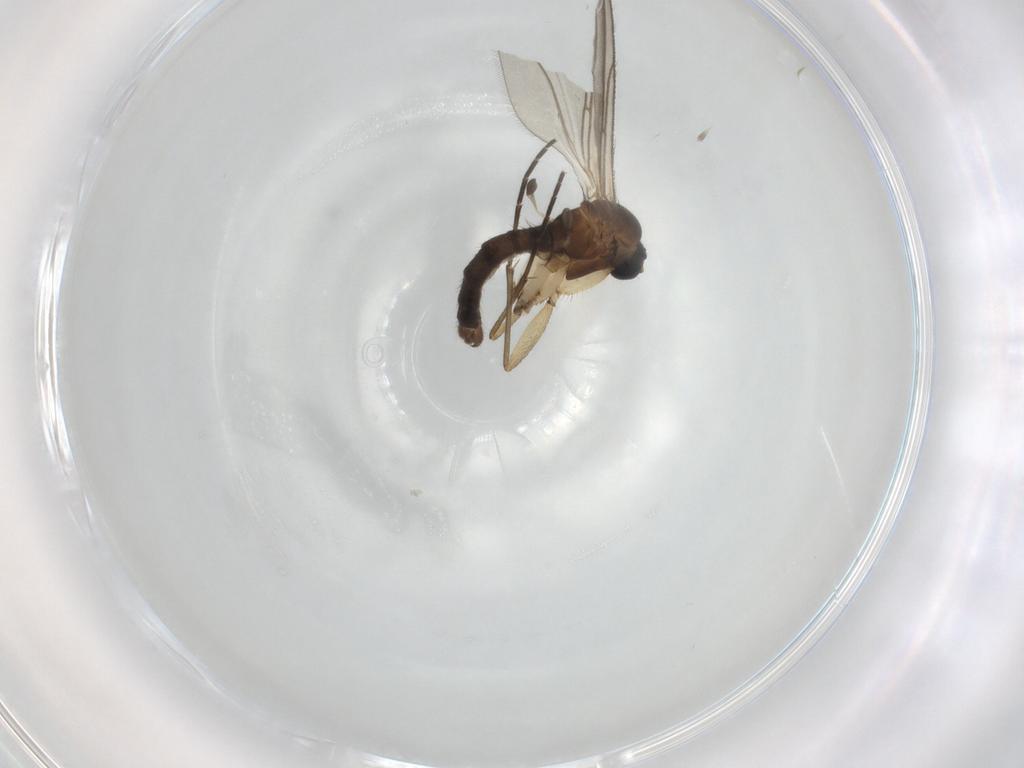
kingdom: Animalia
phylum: Arthropoda
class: Insecta
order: Diptera
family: Sciaridae
